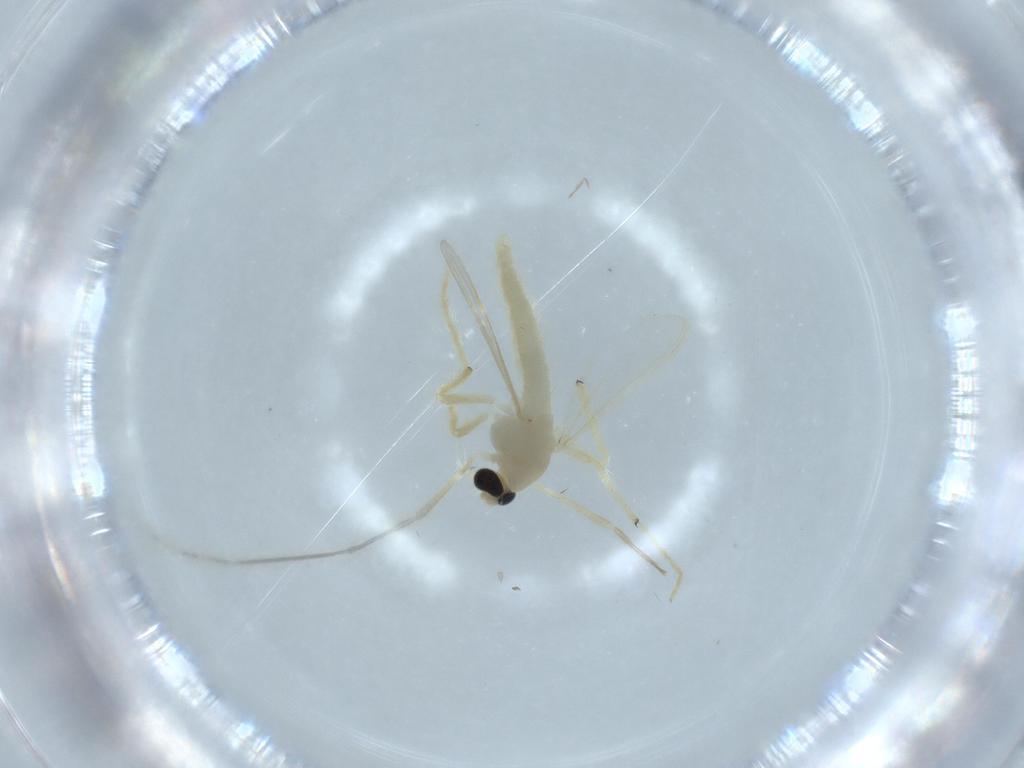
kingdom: Animalia
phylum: Arthropoda
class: Insecta
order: Diptera
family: Chironomidae
